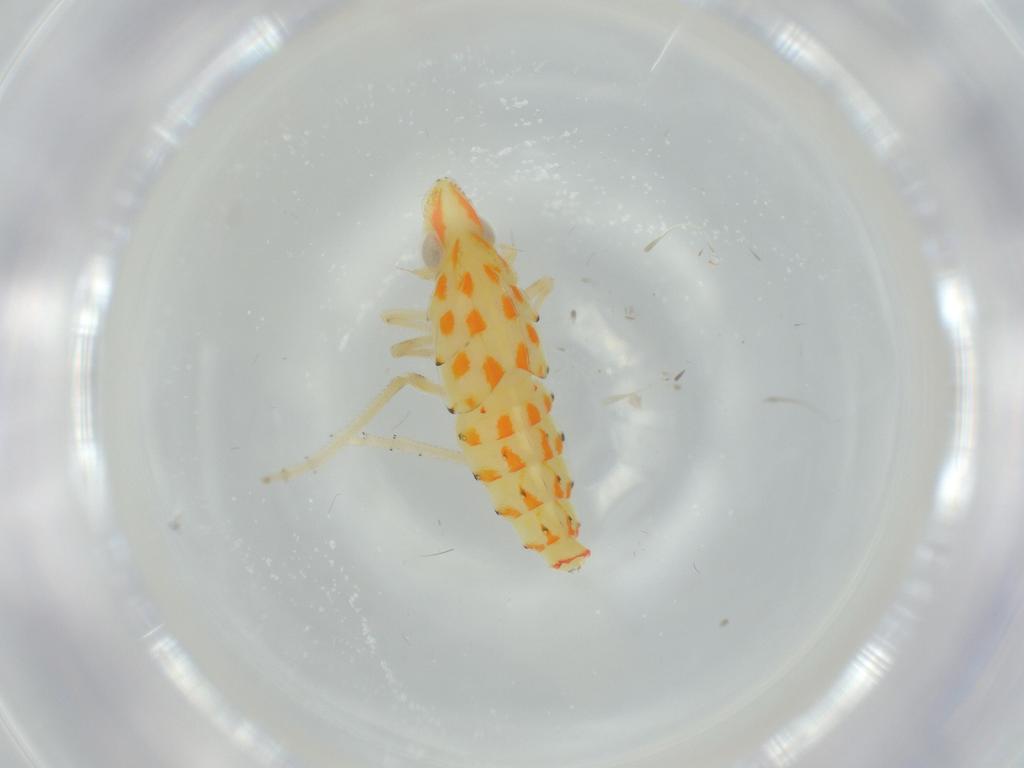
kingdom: Animalia
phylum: Arthropoda
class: Insecta
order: Hemiptera
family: Tropiduchidae
